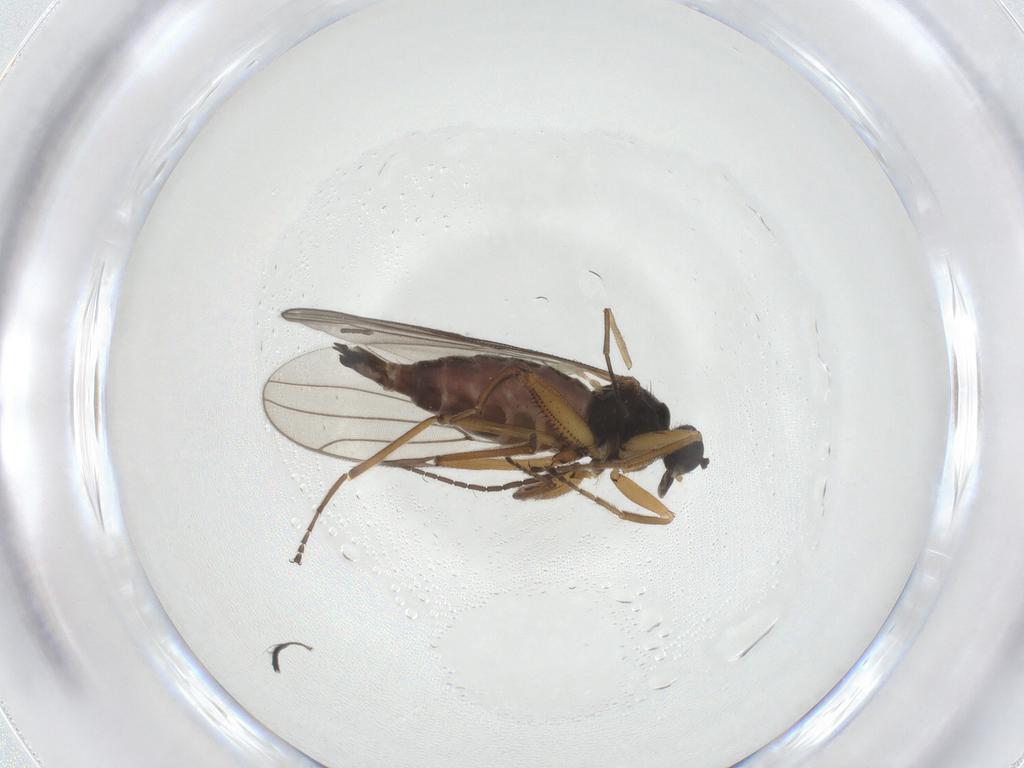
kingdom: Animalia
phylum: Arthropoda
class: Insecta
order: Diptera
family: Hybotidae
